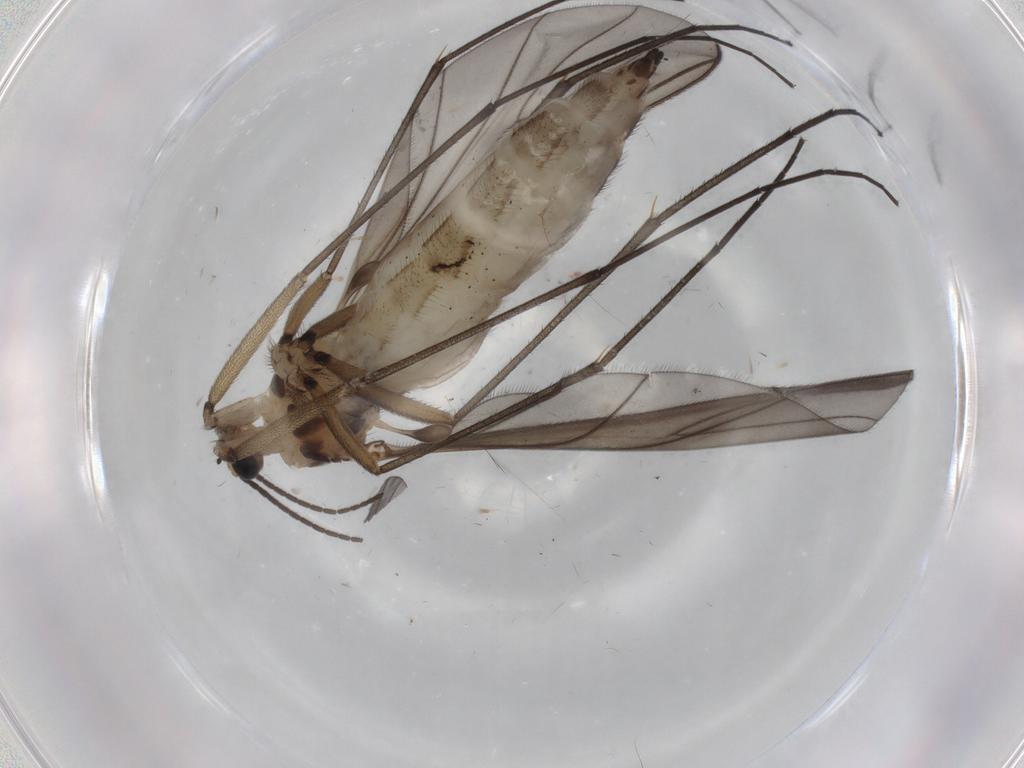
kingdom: Animalia
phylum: Arthropoda
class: Insecta
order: Diptera
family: Sciaridae
